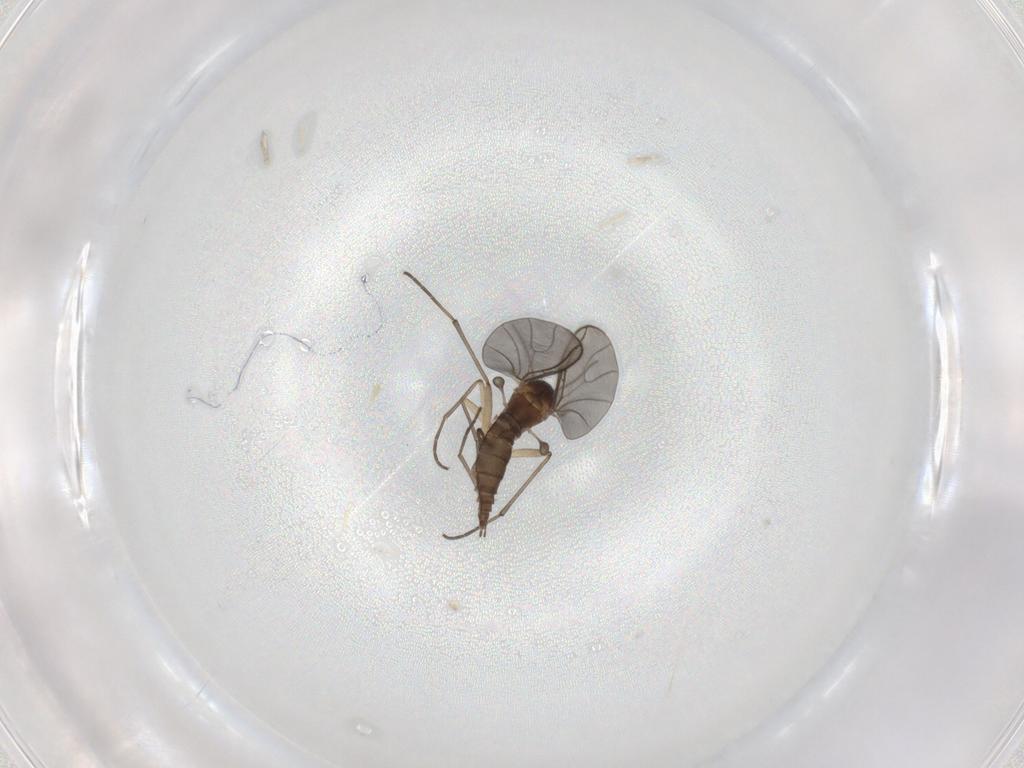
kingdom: Animalia
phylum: Arthropoda
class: Insecta
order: Diptera
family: Sciaridae
